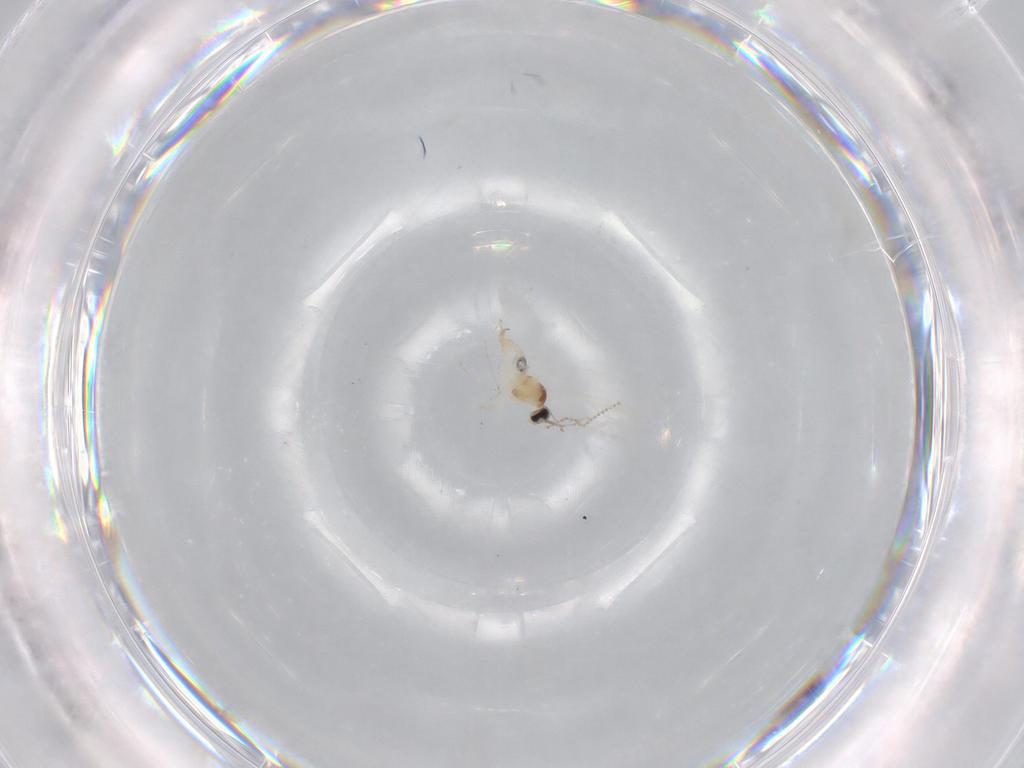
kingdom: Animalia
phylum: Arthropoda
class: Insecta
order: Diptera
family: Cecidomyiidae
